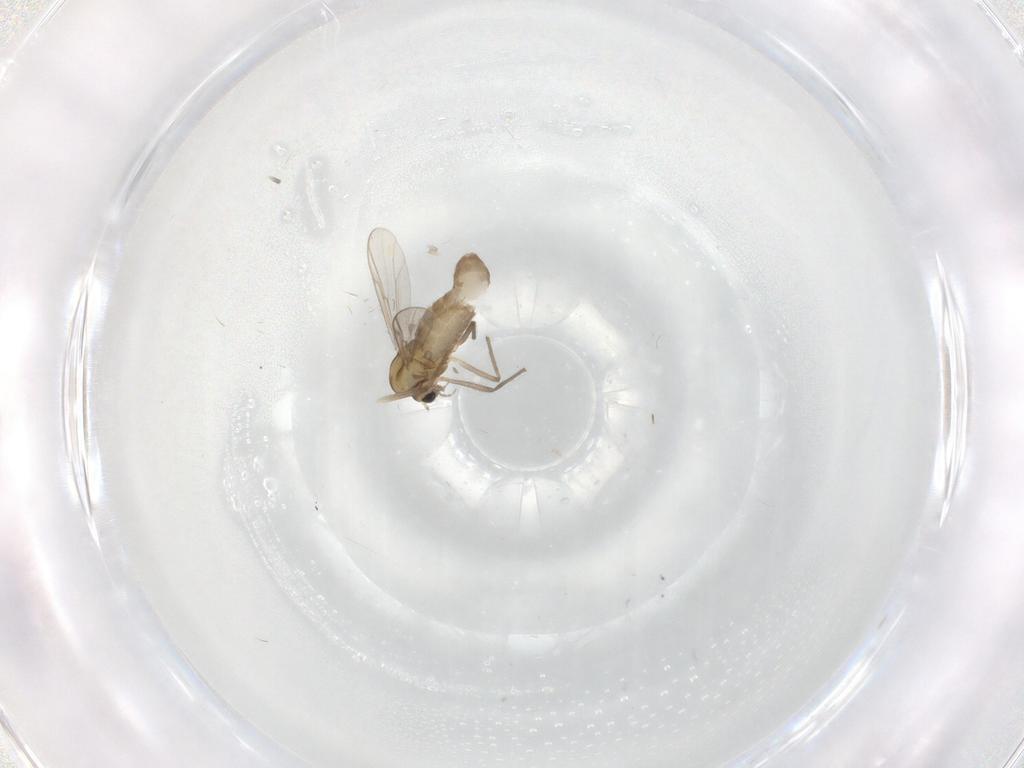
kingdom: Animalia
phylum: Arthropoda
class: Insecta
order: Diptera
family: Chironomidae
